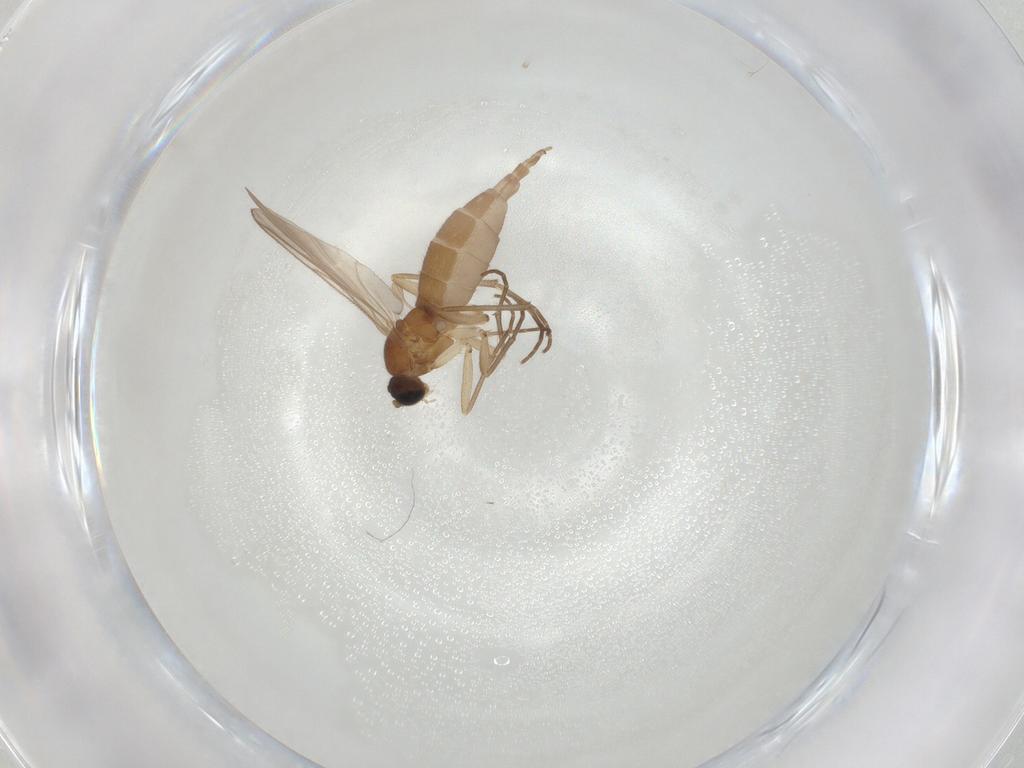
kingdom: Animalia
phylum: Arthropoda
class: Insecta
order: Diptera
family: Sciaridae
